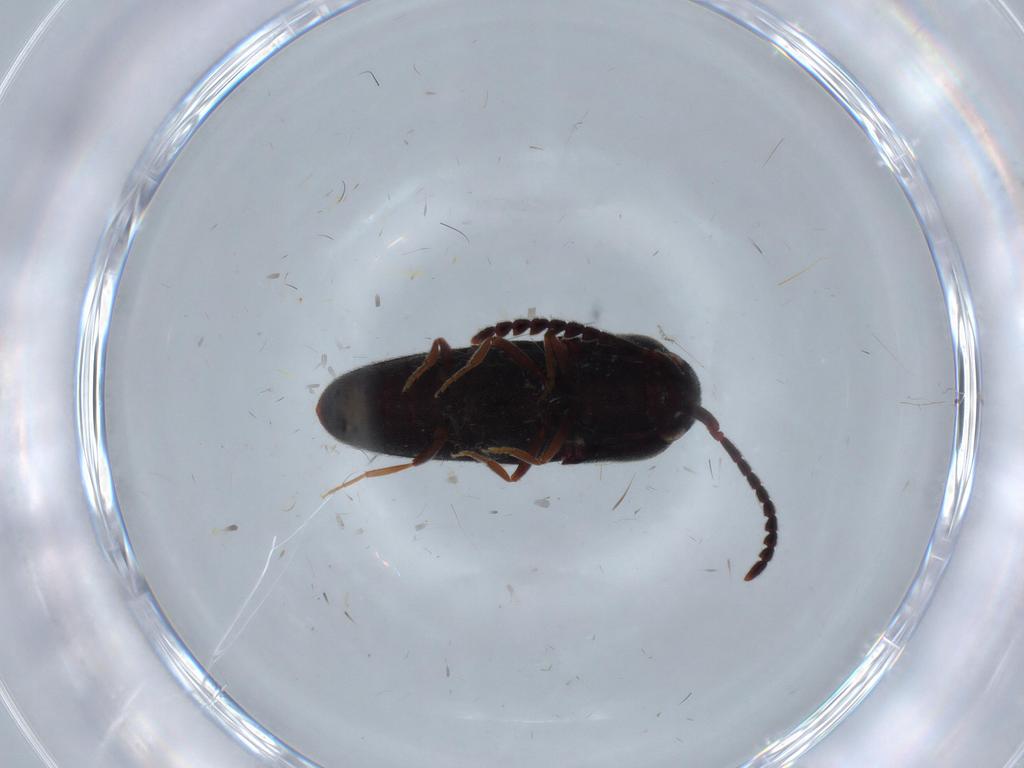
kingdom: Animalia
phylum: Arthropoda
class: Insecta
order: Coleoptera
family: Eucnemidae
